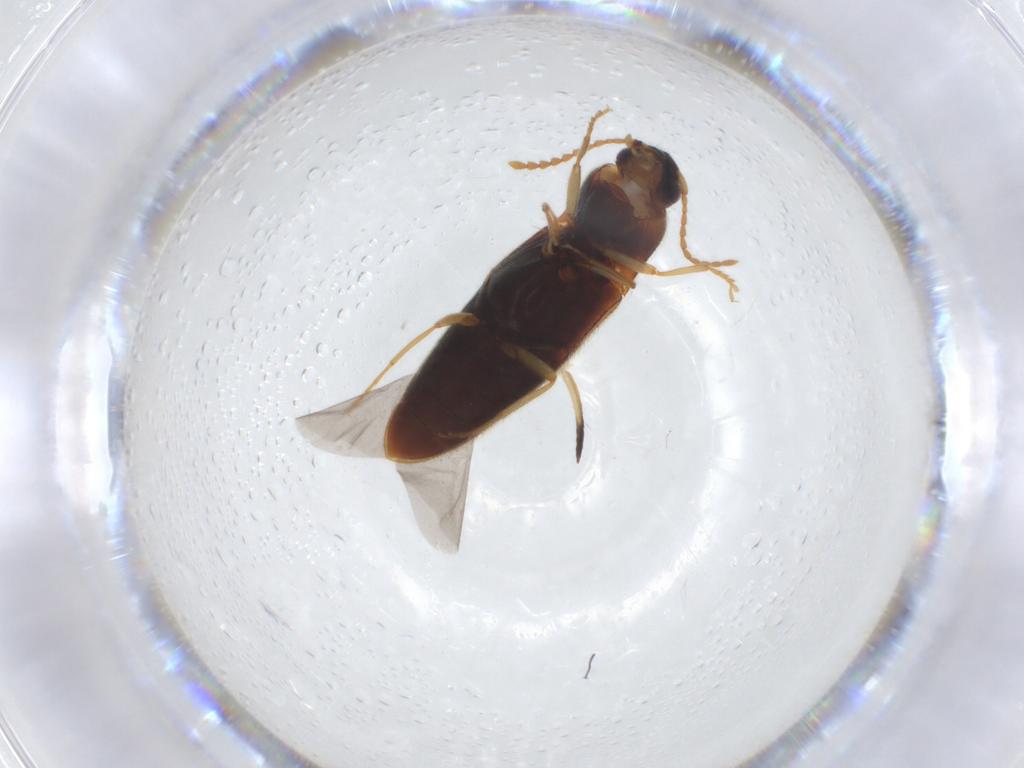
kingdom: Animalia
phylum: Arthropoda
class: Insecta
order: Coleoptera
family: Elateridae
